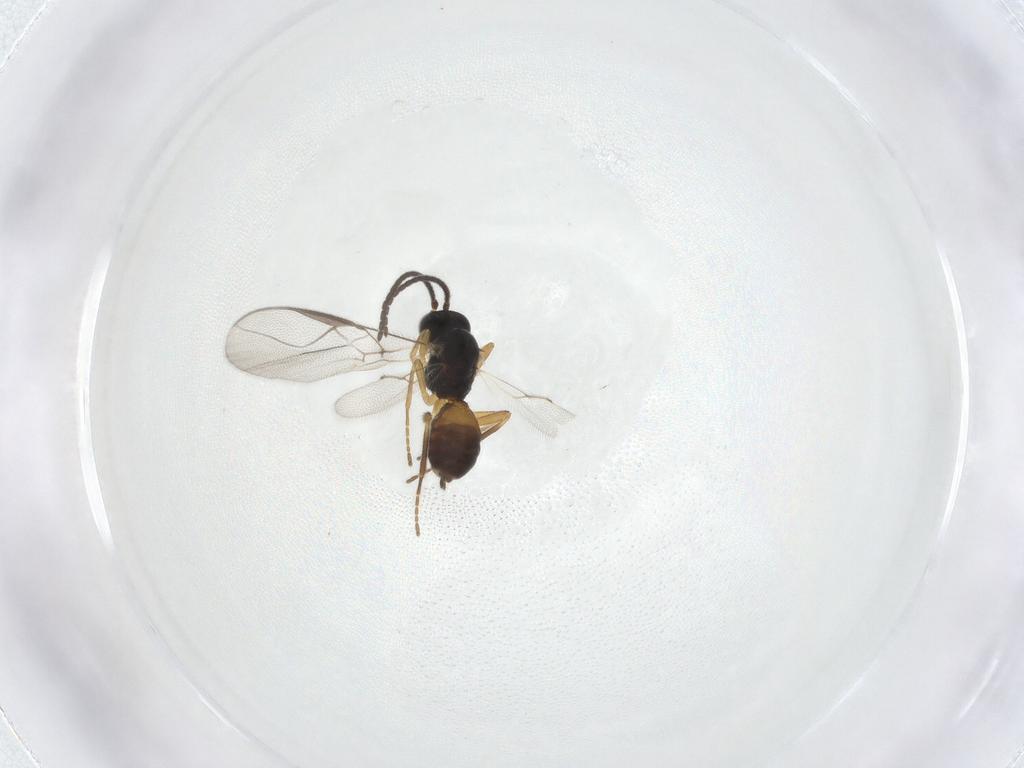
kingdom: Animalia
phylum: Arthropoda
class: Insecta
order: Hymenoptera
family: Braconidae
